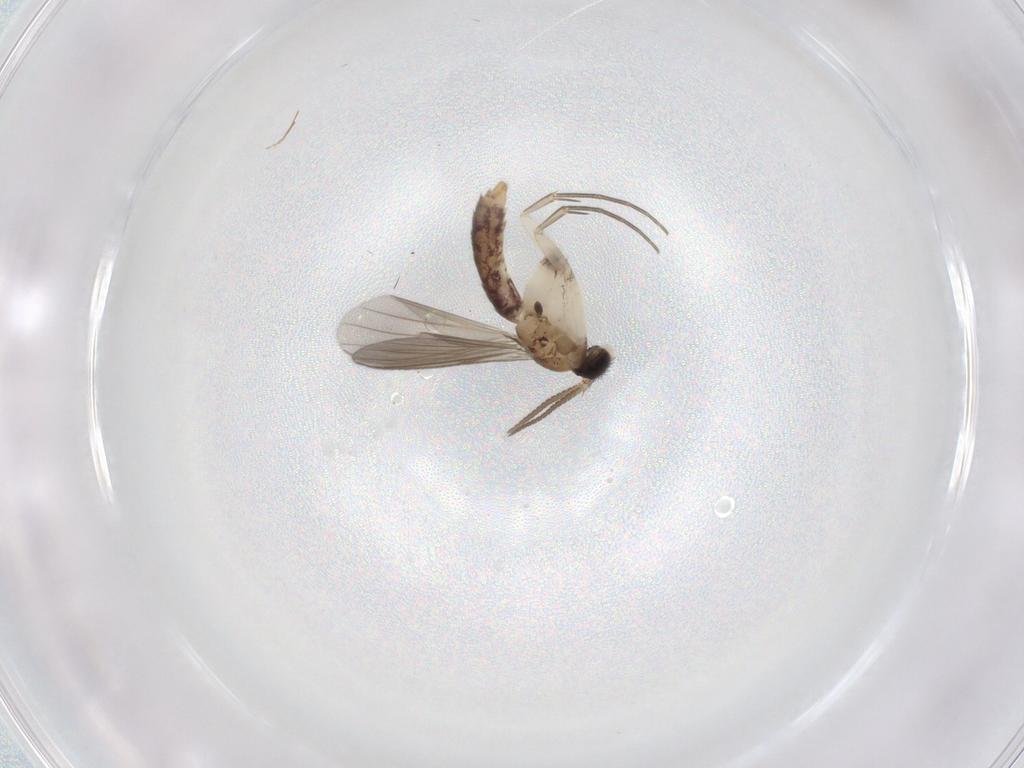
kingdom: Animalia
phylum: Arthropoda
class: Insecta
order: Diptera
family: Mycetophilidae
